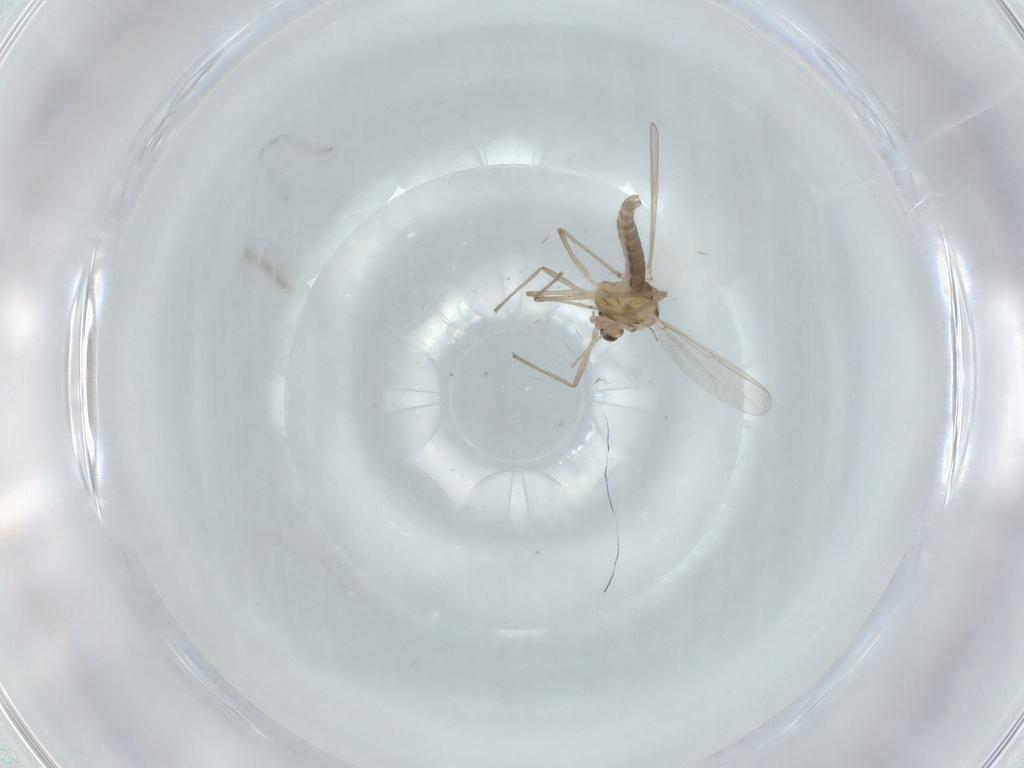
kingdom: Animalia
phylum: Arthropoda
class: Insecta
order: Diptera
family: Chironomidae
